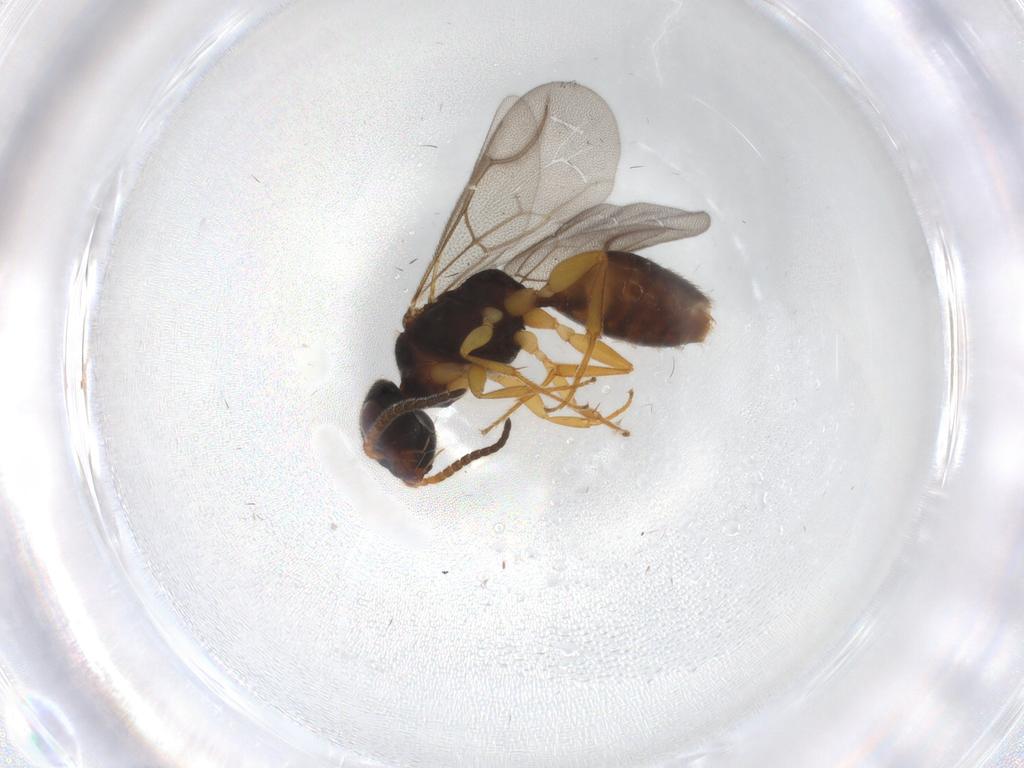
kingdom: Animalia
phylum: Arthropoda
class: Insecta
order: Hymenoptera
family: Bethylidae
